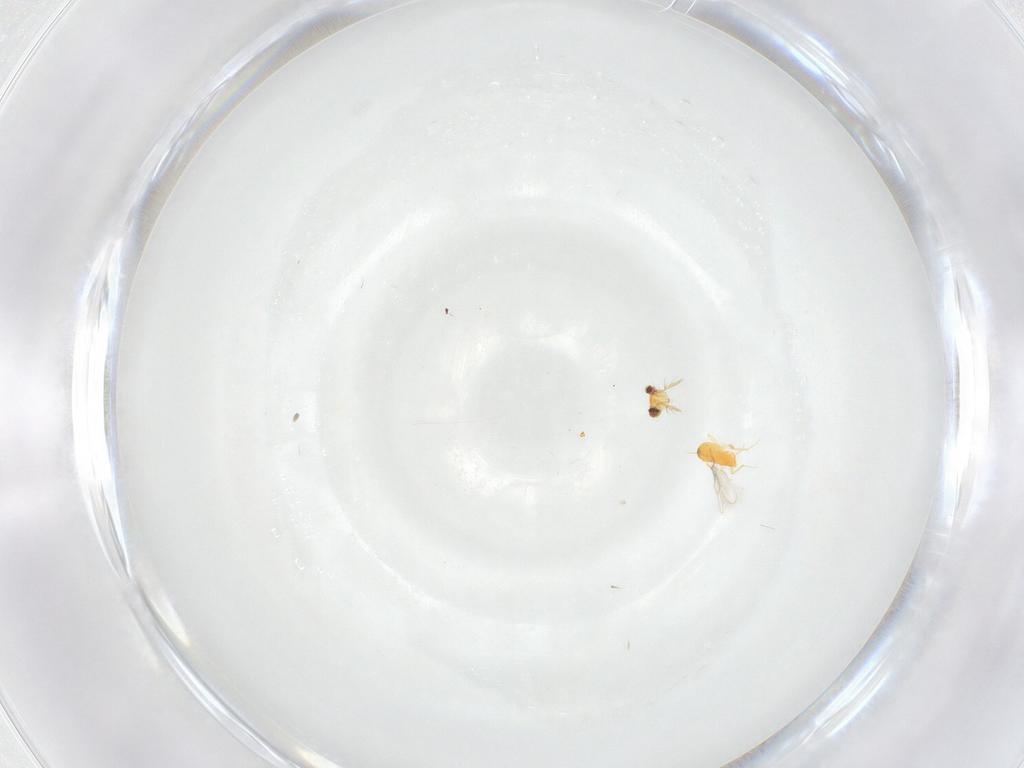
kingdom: Animalia
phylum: Arthropoda
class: Insecta
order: Hymenoptera
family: Aphelinidae
